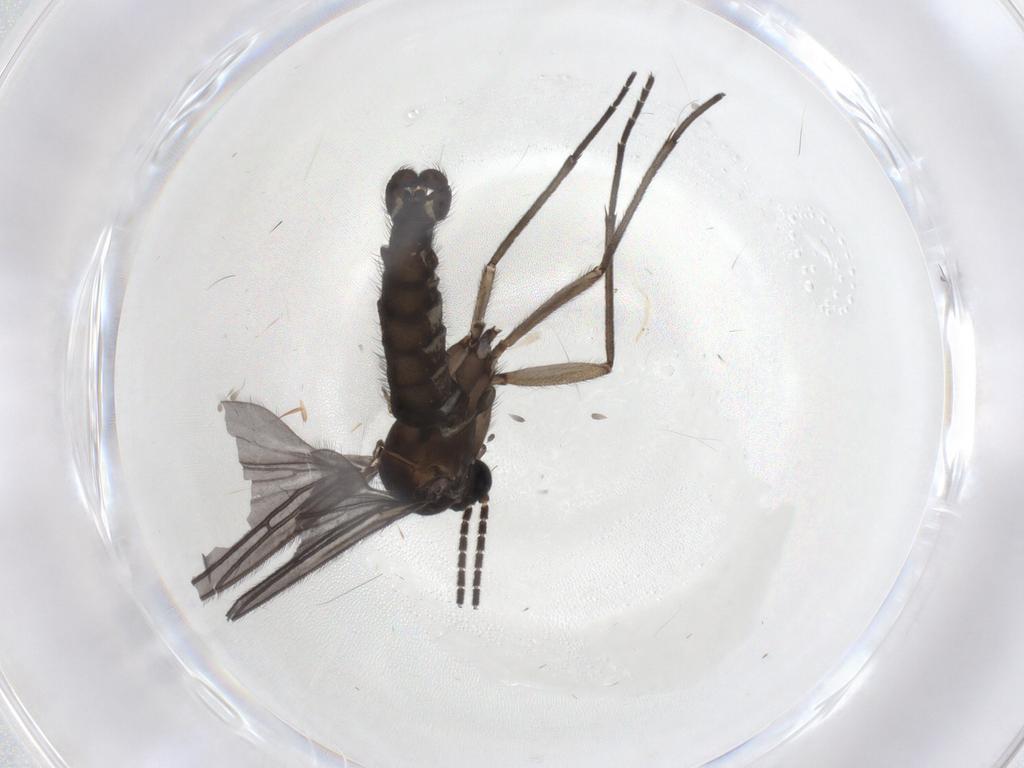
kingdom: Animalia
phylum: Arthropoda
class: Insecta
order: Diptera
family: Sciaridae
